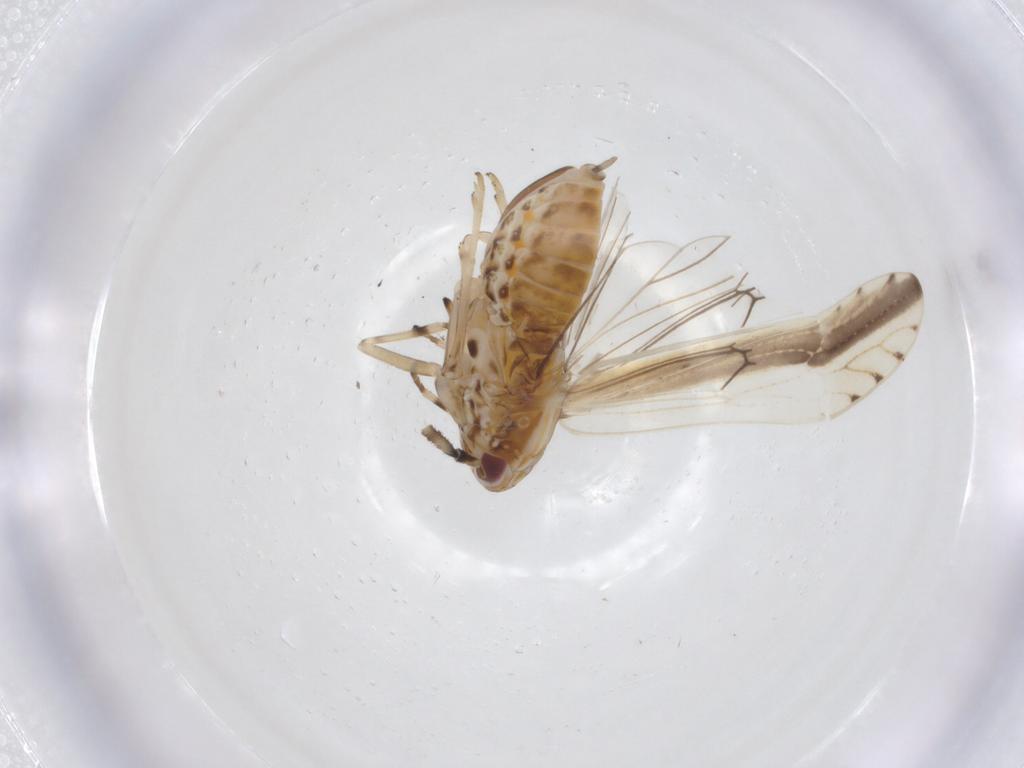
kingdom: Animalia
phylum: Arthropoda
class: Insecta
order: Hemiptera
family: Delphacidae
